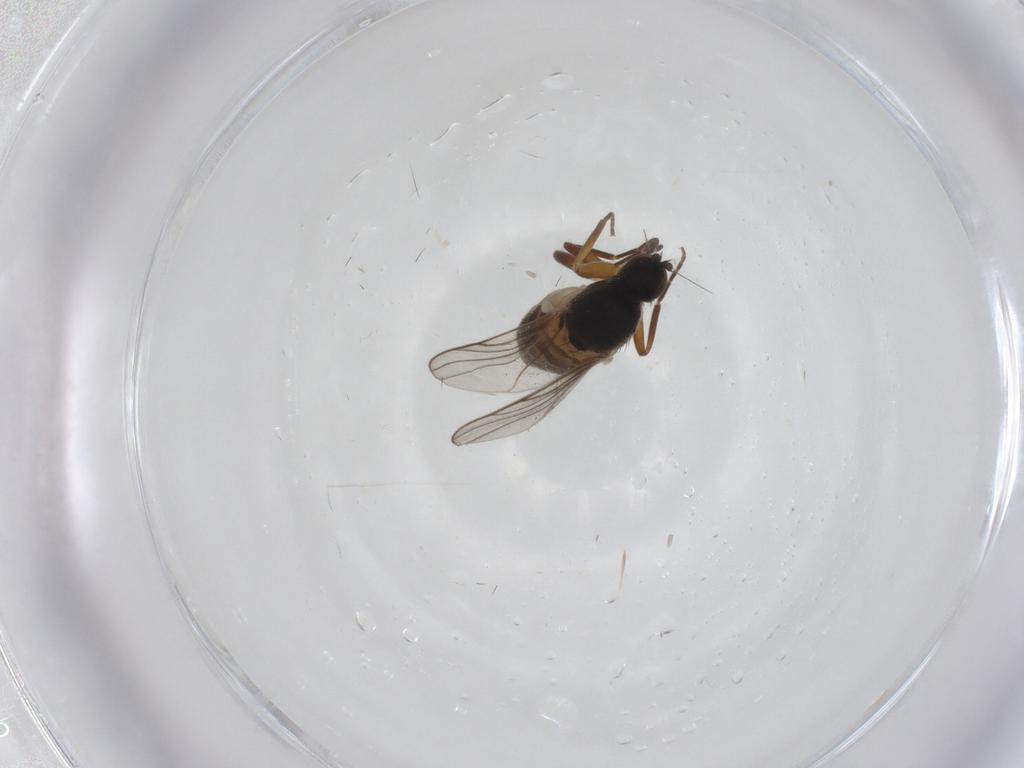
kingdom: Animalia
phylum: Arthropoda
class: Insecta
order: Diptera
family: Hybotidae
